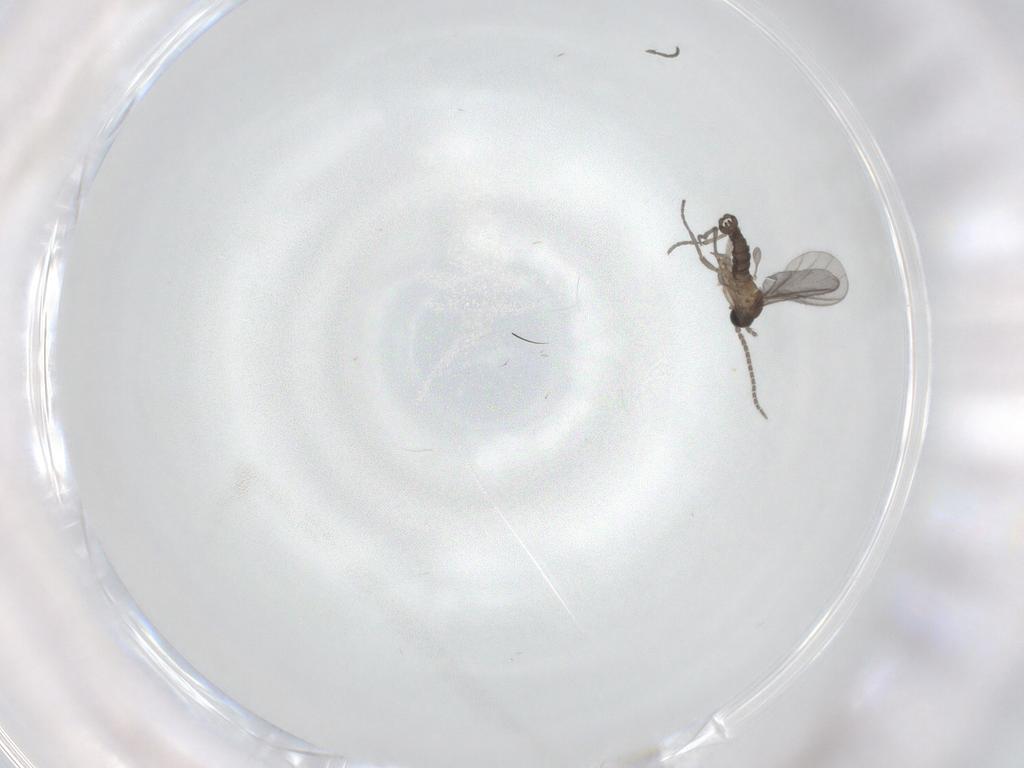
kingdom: Animalia
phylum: Arthropoda
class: Insecta
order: Diptera
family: Sciaridae
